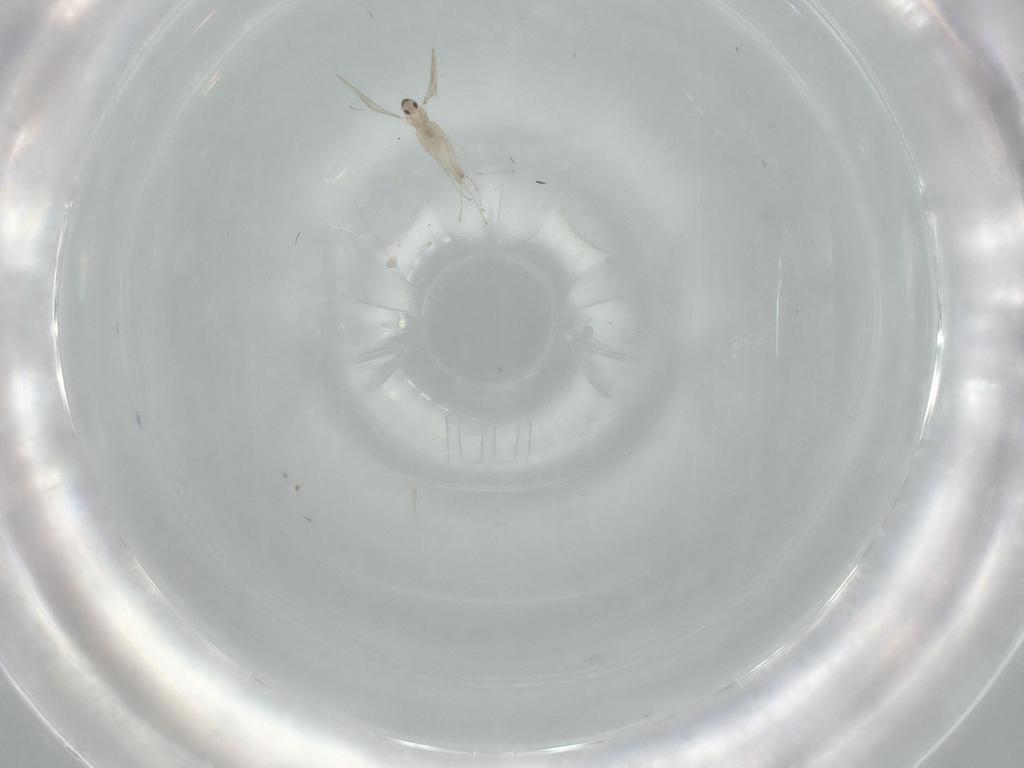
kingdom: Animalia
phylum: Arthropoda
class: Insecta
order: Diptera
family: Cecidomyiidae
